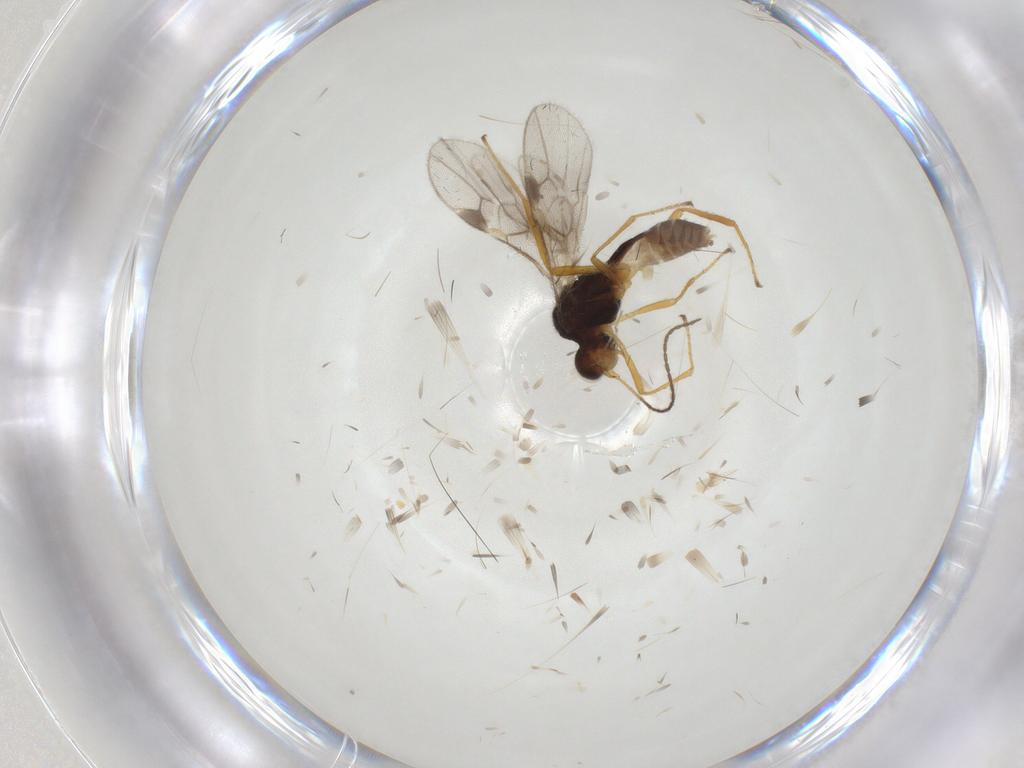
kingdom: Animalia
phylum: Arthropoda
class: Insecta
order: Hymenoptera
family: Braconidae
